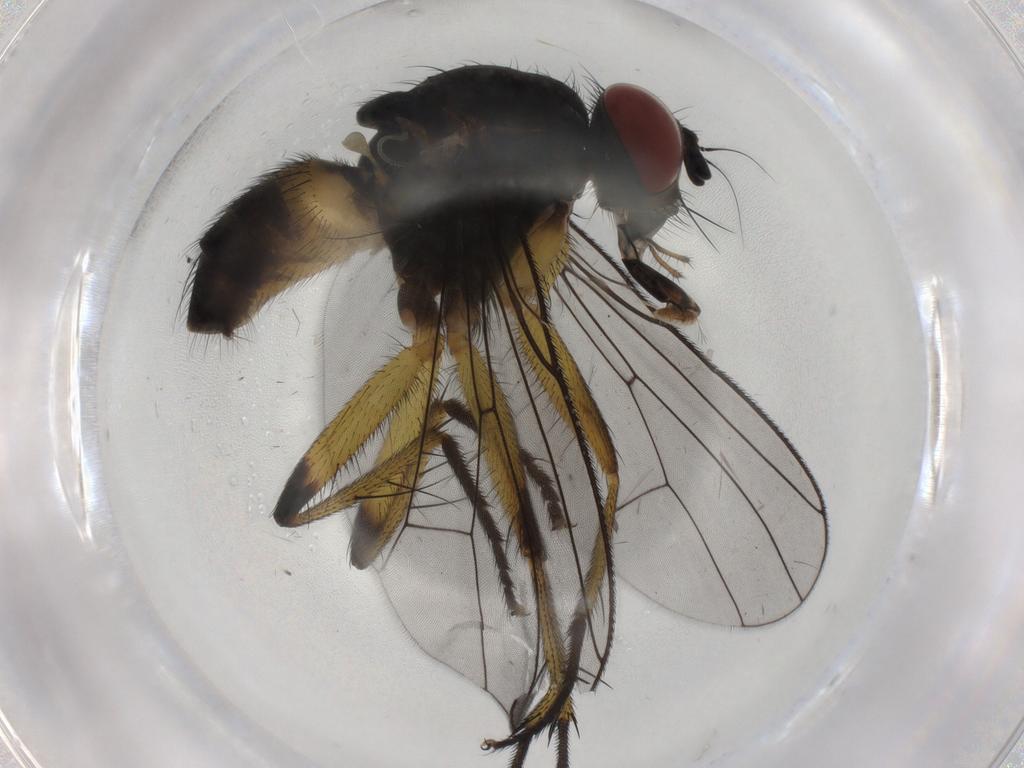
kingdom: Animalia
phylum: Arthropoda
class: Insecta
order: Diptera
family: Muscidae
